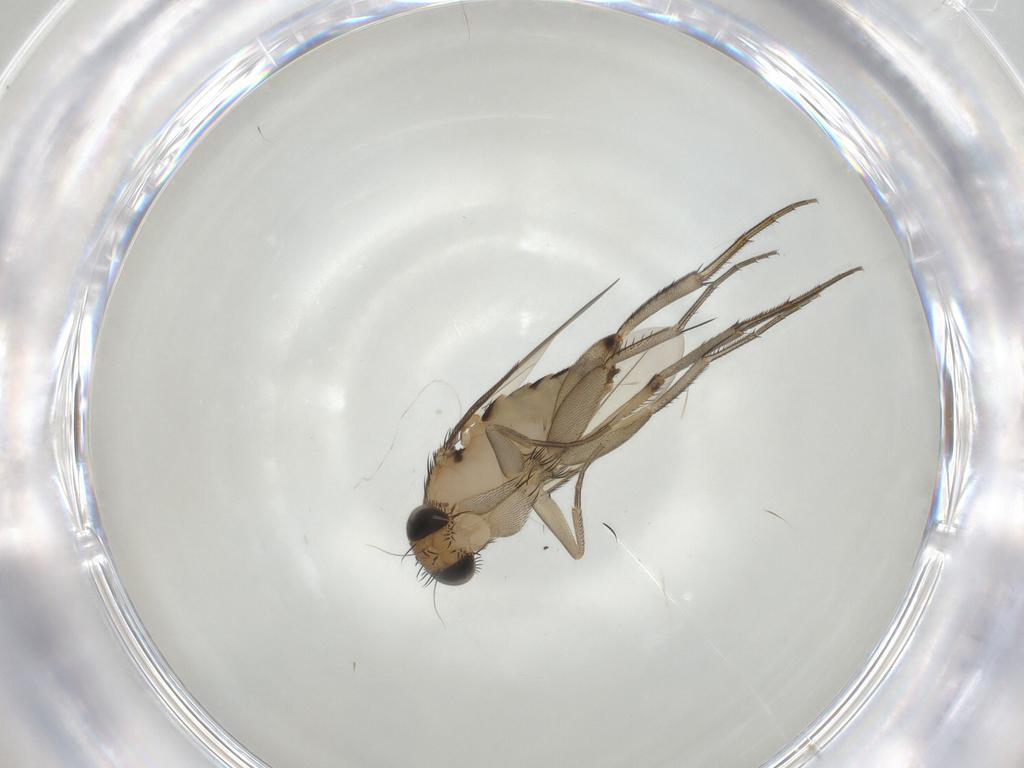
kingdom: Animalia
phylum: Arthropoda
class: Insecta
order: Diptera
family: Phoridae
